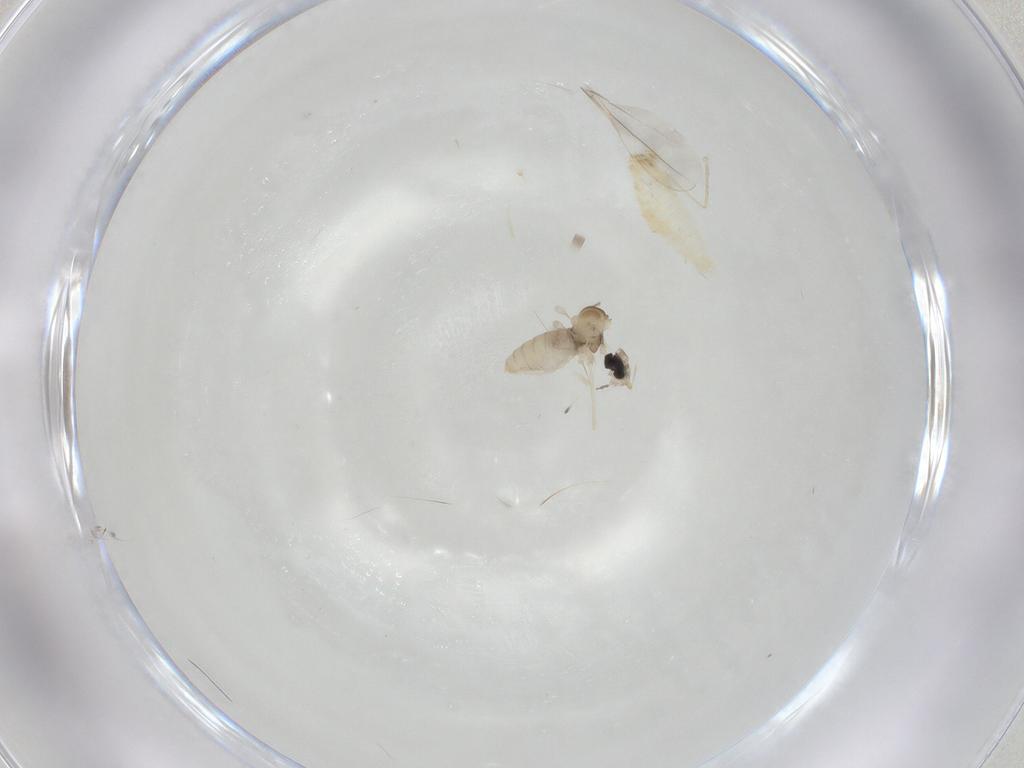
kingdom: Animalia
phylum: Arthropoda
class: Insecta
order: Diptera
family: Cecidomyiidae
